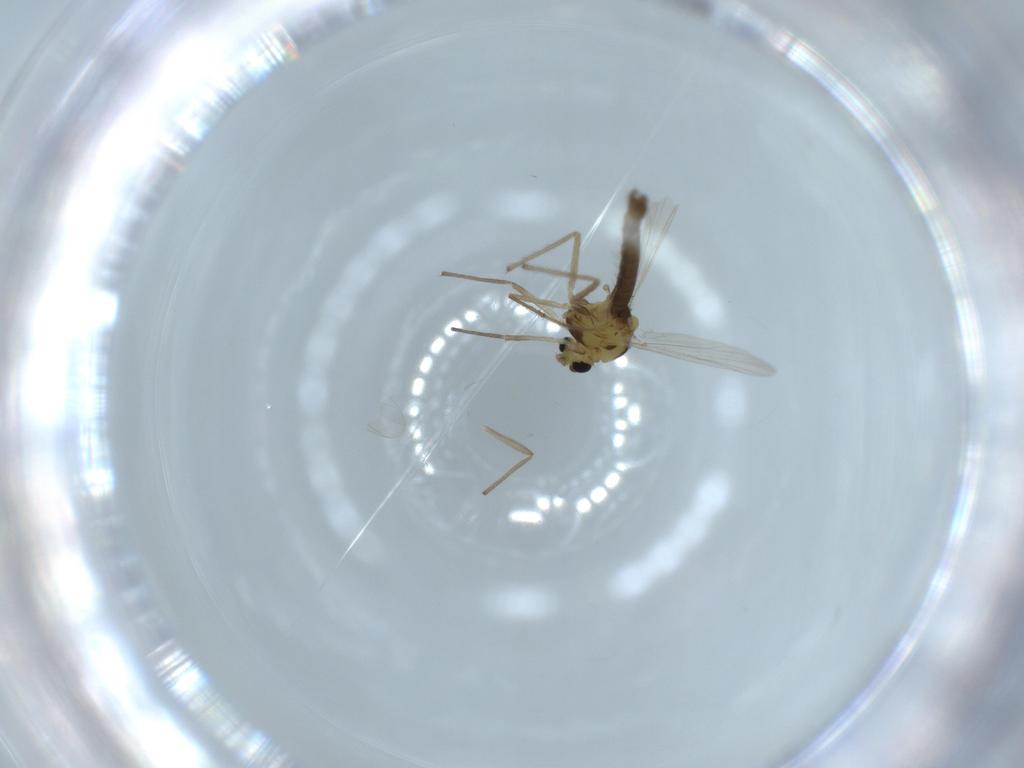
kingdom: Animalia
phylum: Arthropoda
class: Insecta
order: Diptera
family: Chironomidae
